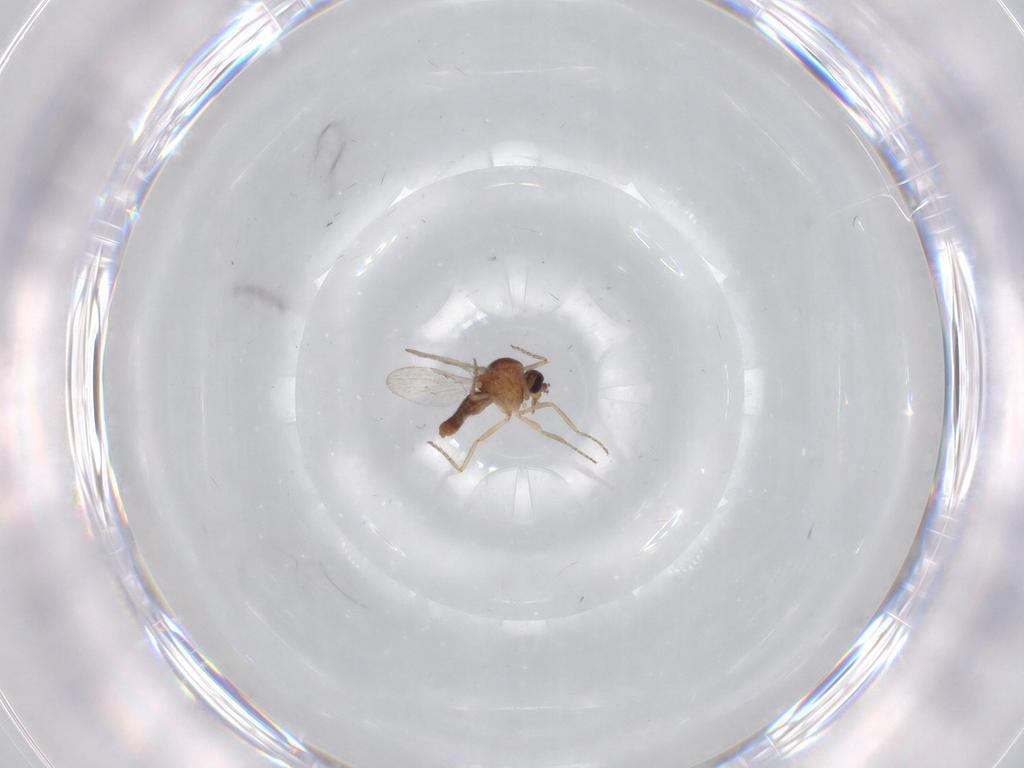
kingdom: Animalia
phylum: Arthropoda
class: Insecta
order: Diptera
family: Ceratopogonidae
